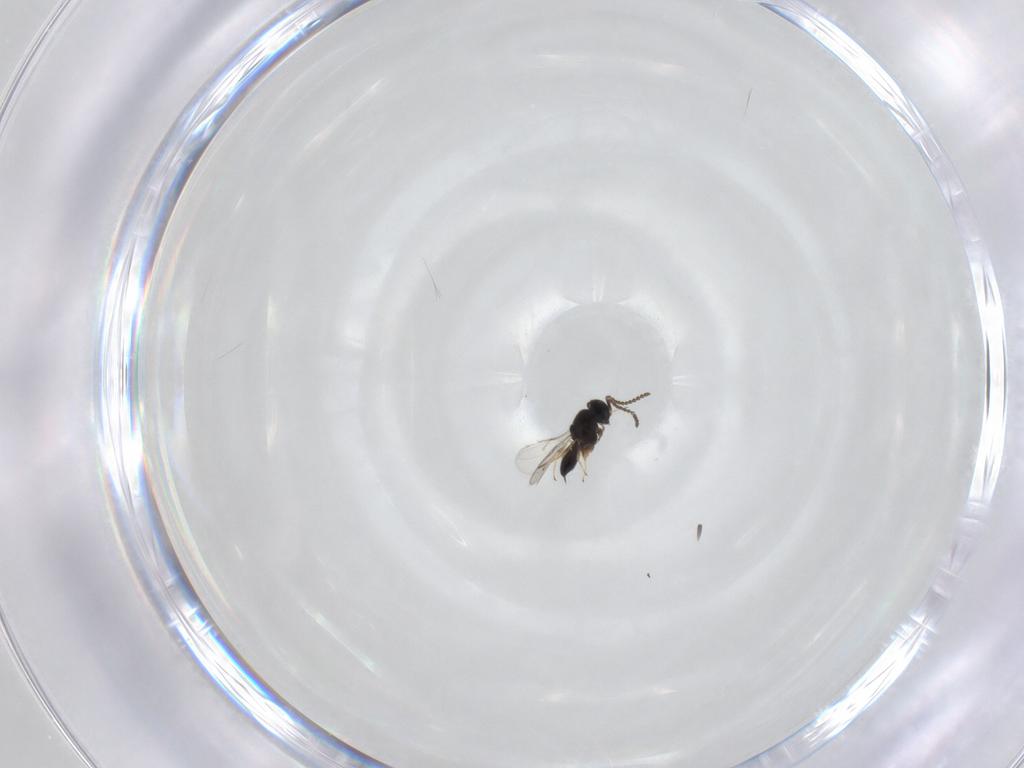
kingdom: Animalia
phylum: Arthropoda
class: Insecta
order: Hymenoptera
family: Scelionidae
